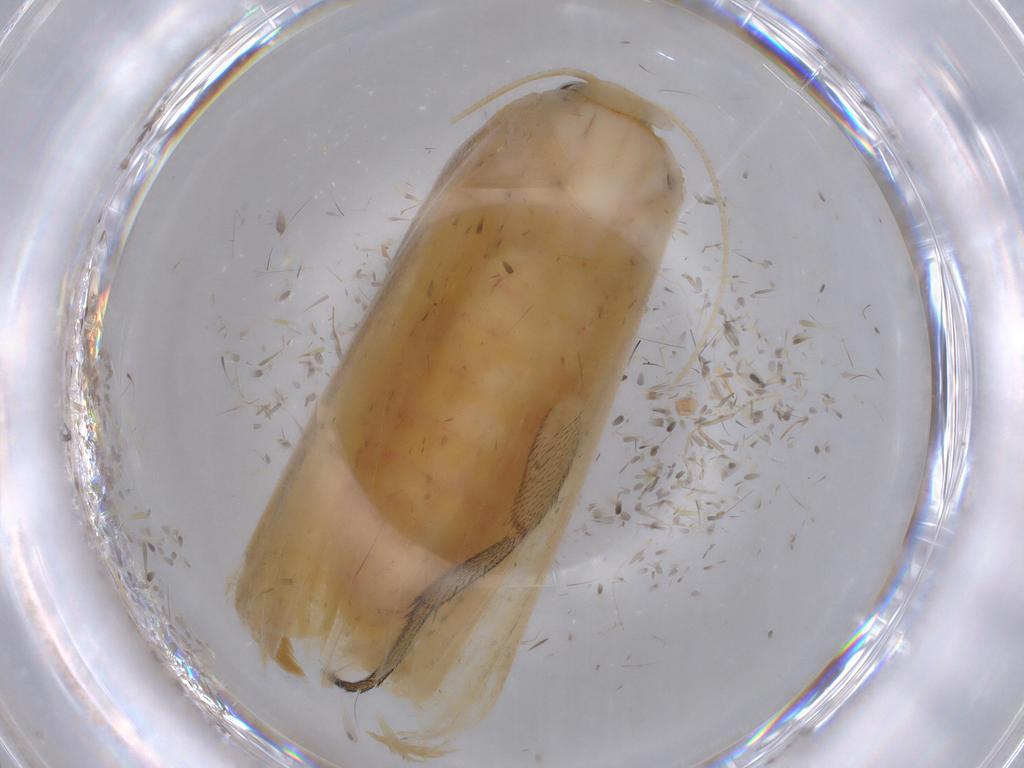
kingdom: Animalia
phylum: Arthropoda
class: Insecta
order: Lepidoptera
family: Erebidae
